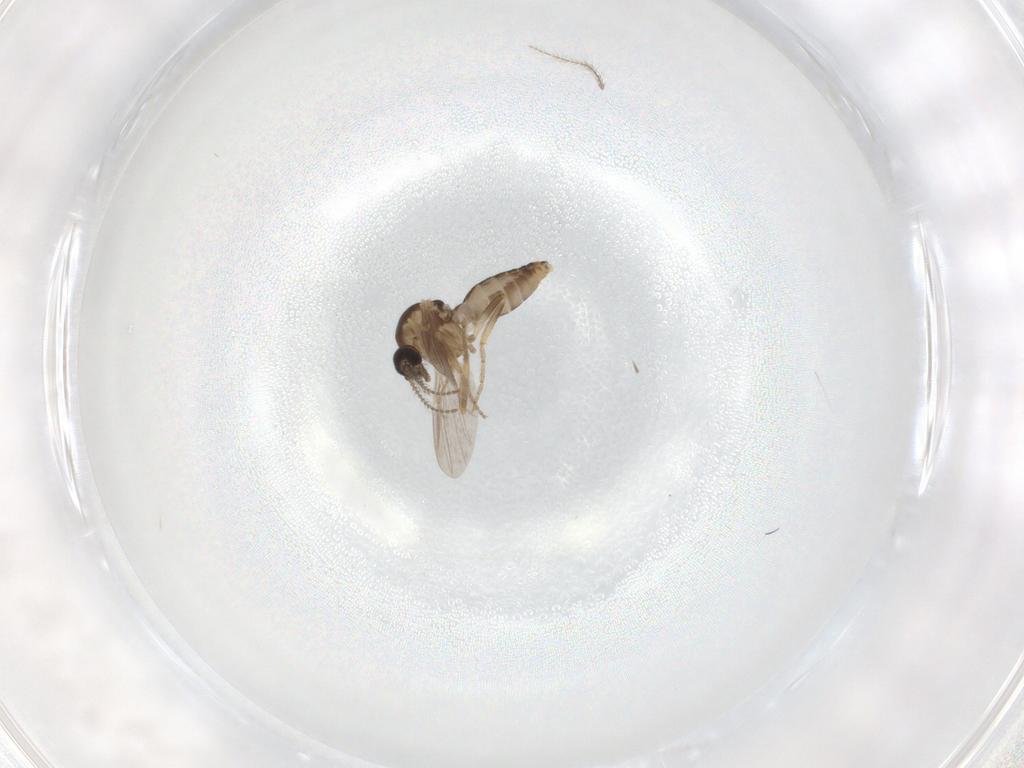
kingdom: Animalia
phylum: Arthropoda
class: Insecta
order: Diptera
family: Ceratopogonidae
